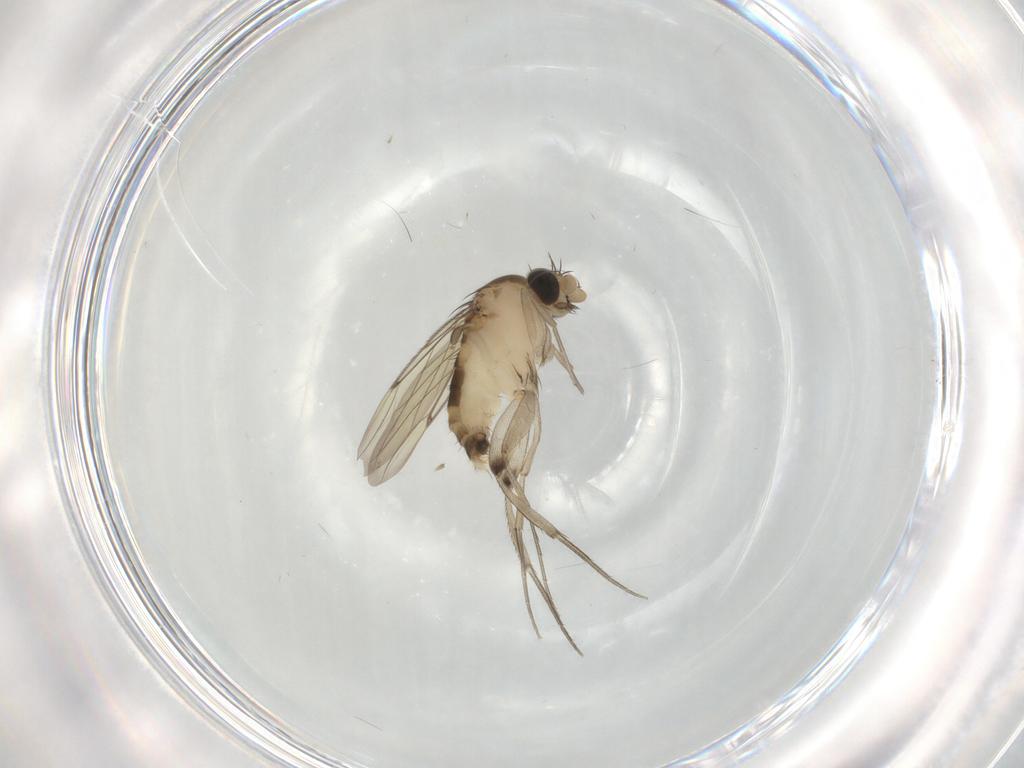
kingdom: Animalia
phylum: Arthropoda
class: Insecta
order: Diptera
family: Phoridae
